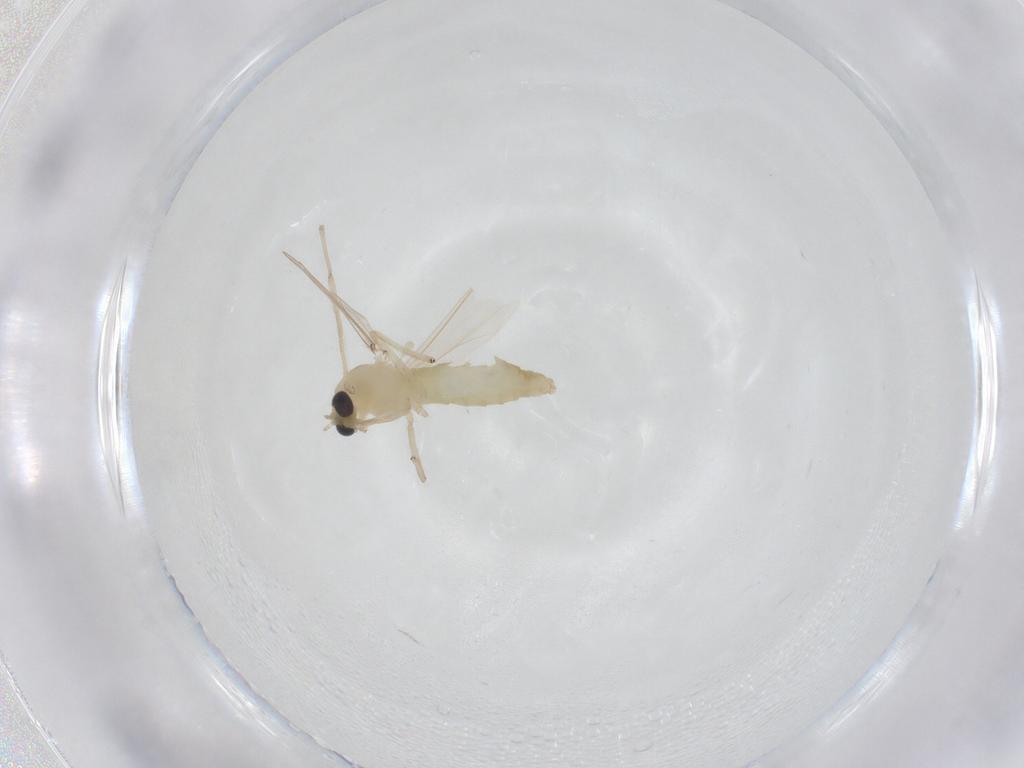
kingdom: Animalia
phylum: Arthropoda
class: Insecta
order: Diptera
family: Chironomidae
